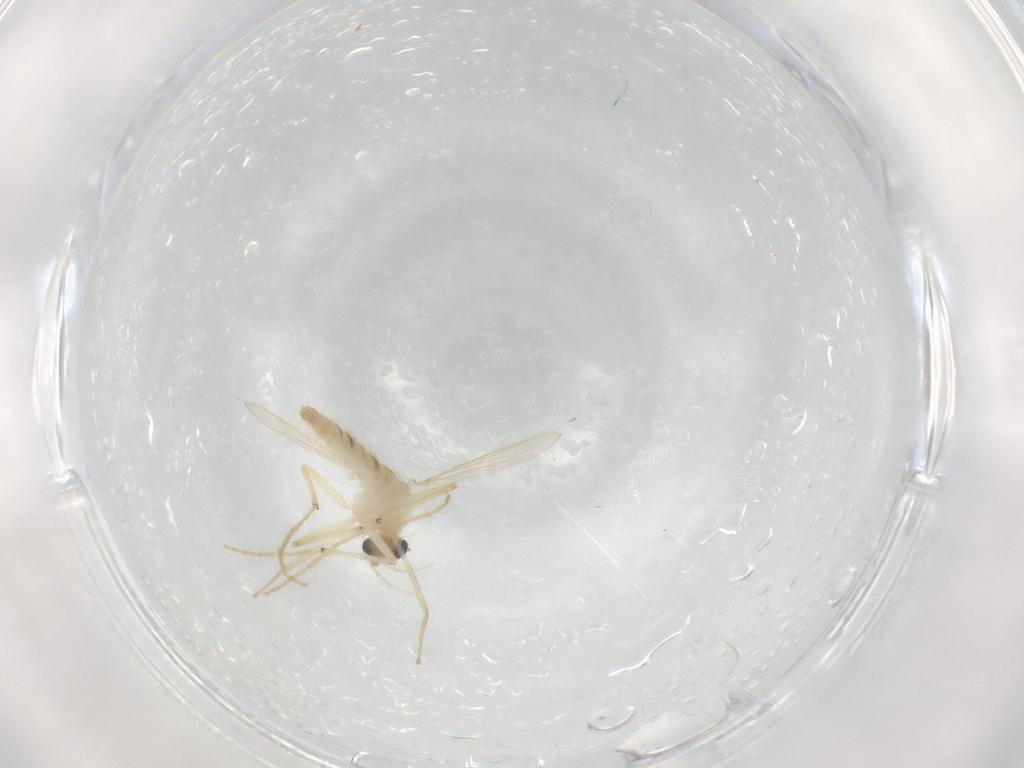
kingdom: Animalia
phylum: Arthropoda
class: Insecta
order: Diptera
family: Chironomidae
